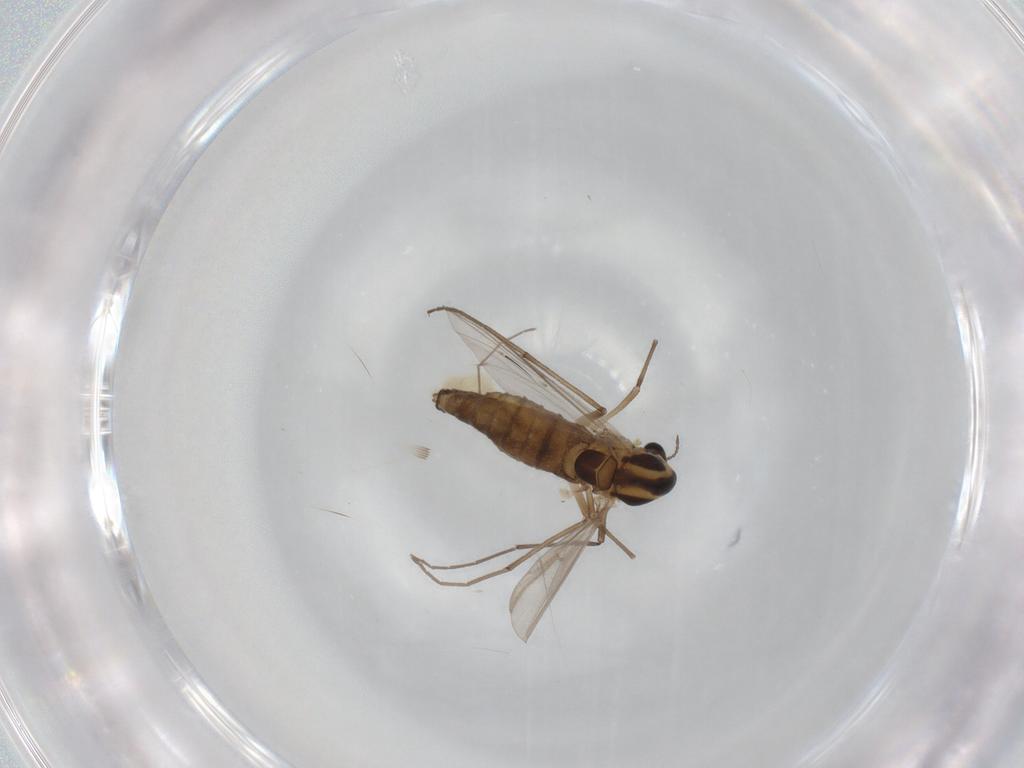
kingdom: Animalia
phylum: Arthropoda
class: Insecta
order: Diptera
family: Chironomidae
